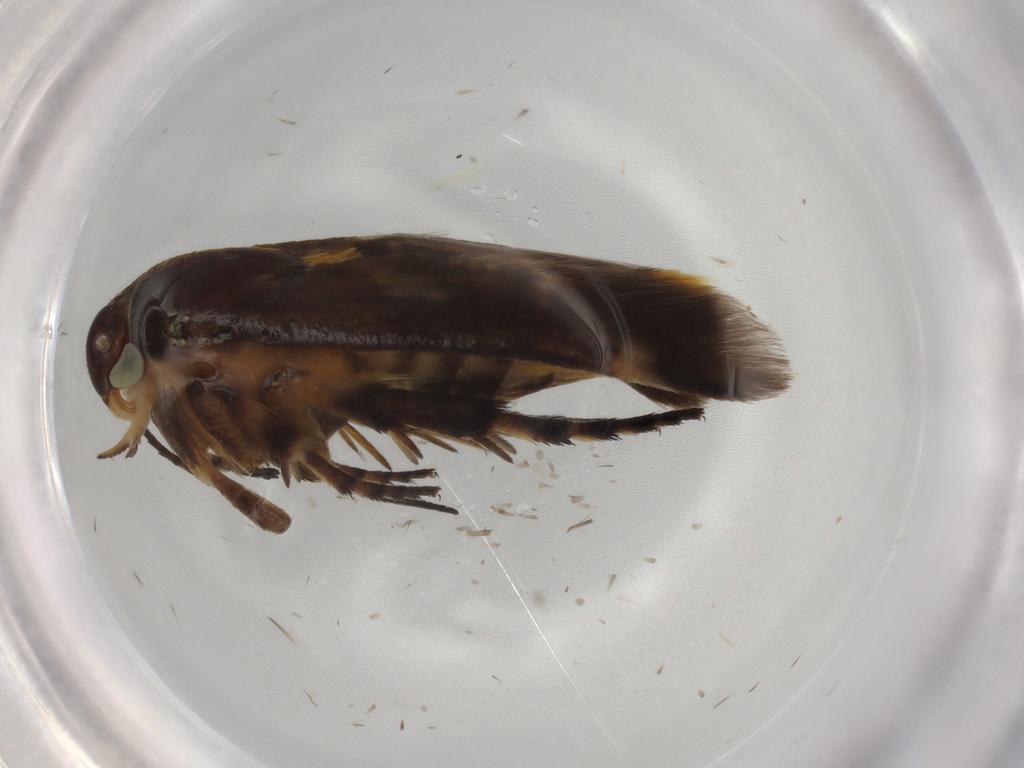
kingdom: Animalia
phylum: Arthropoda
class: Insecta
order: Lepidoptera
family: Scythrididae
